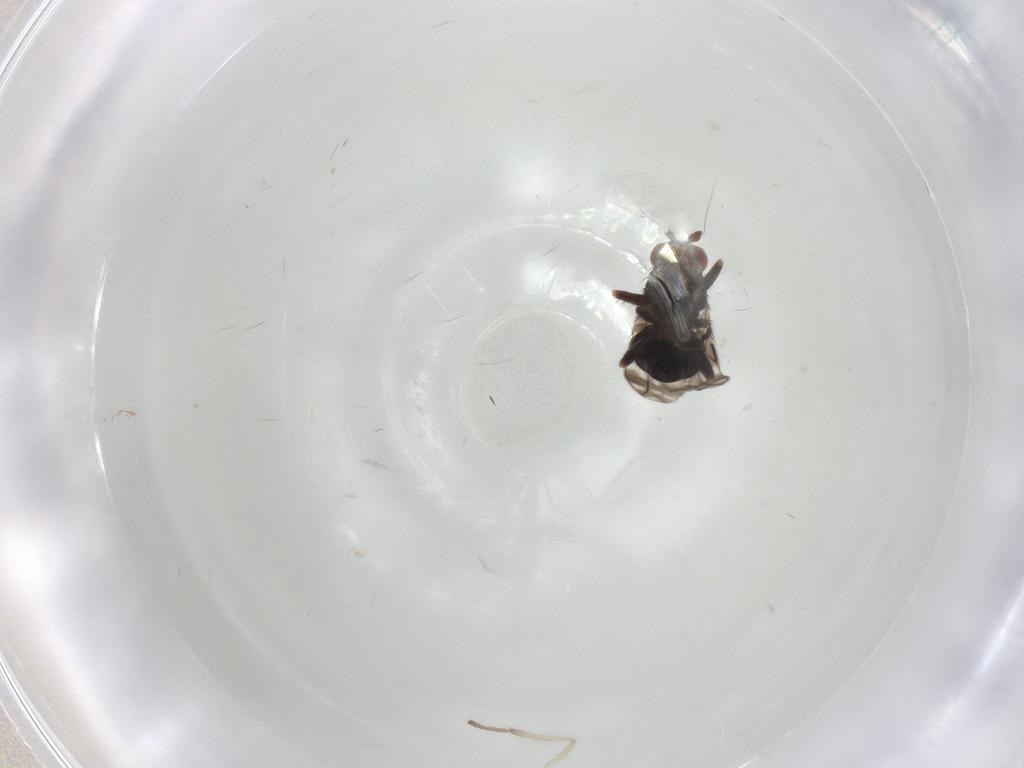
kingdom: Animalia
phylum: Arthropoda
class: Insecta
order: Diptera
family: Sphaeroceridae
